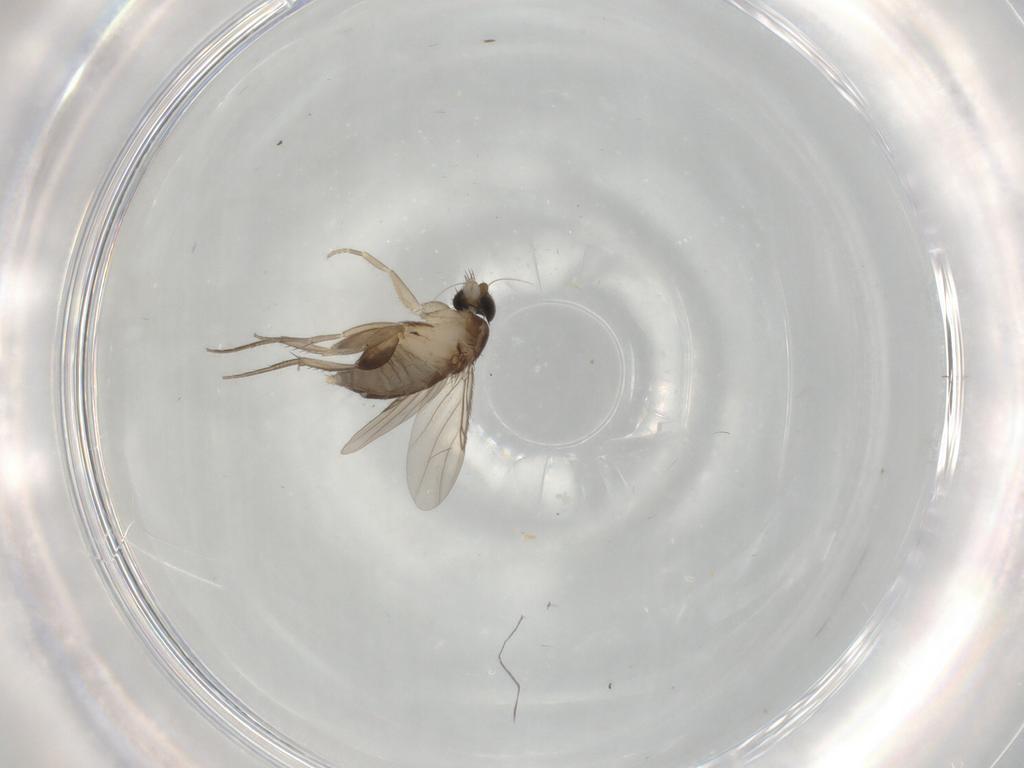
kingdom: Animalia
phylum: Arthropoda
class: Insecta
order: Diptera
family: Phoridae
